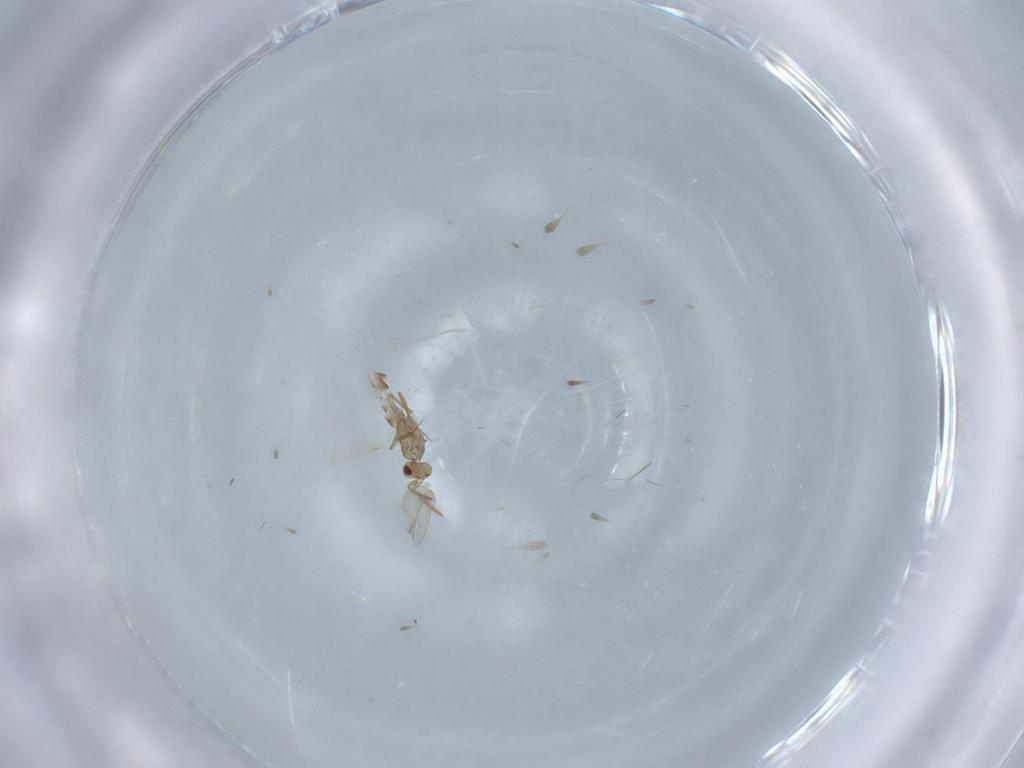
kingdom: Animalia
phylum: Arthropoda
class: Insecta
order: Hymenoptera
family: Aphelinidae
